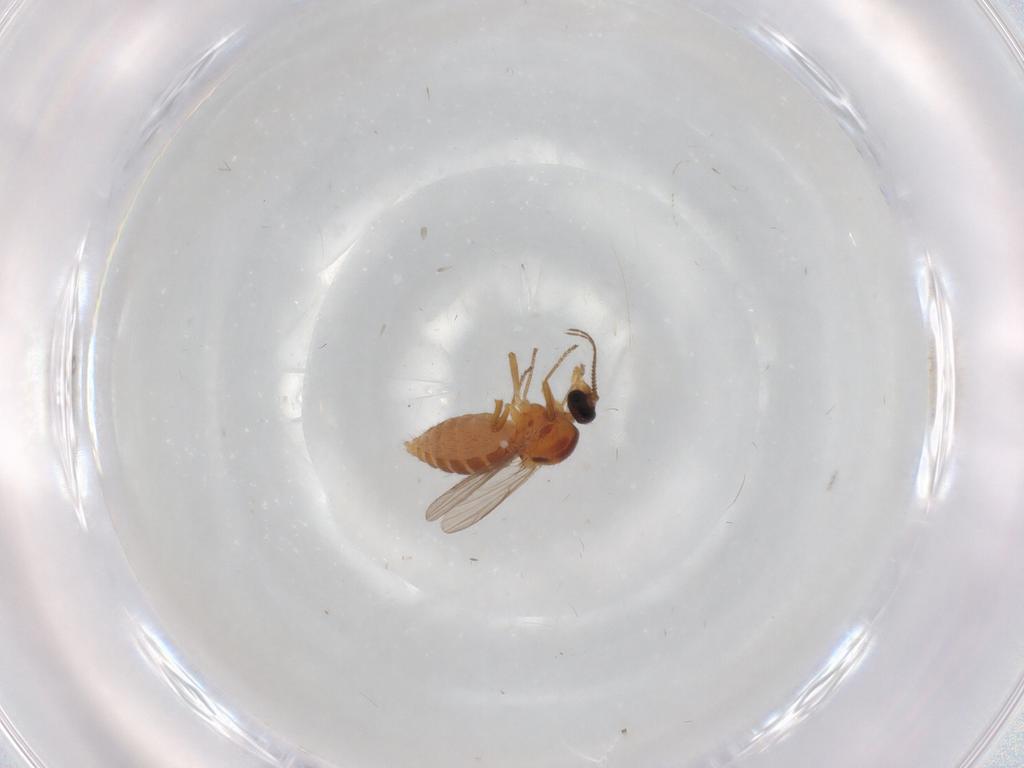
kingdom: Animalia
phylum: Arthropoda
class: Insecta
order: Diptera
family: Ceratopogonidae
